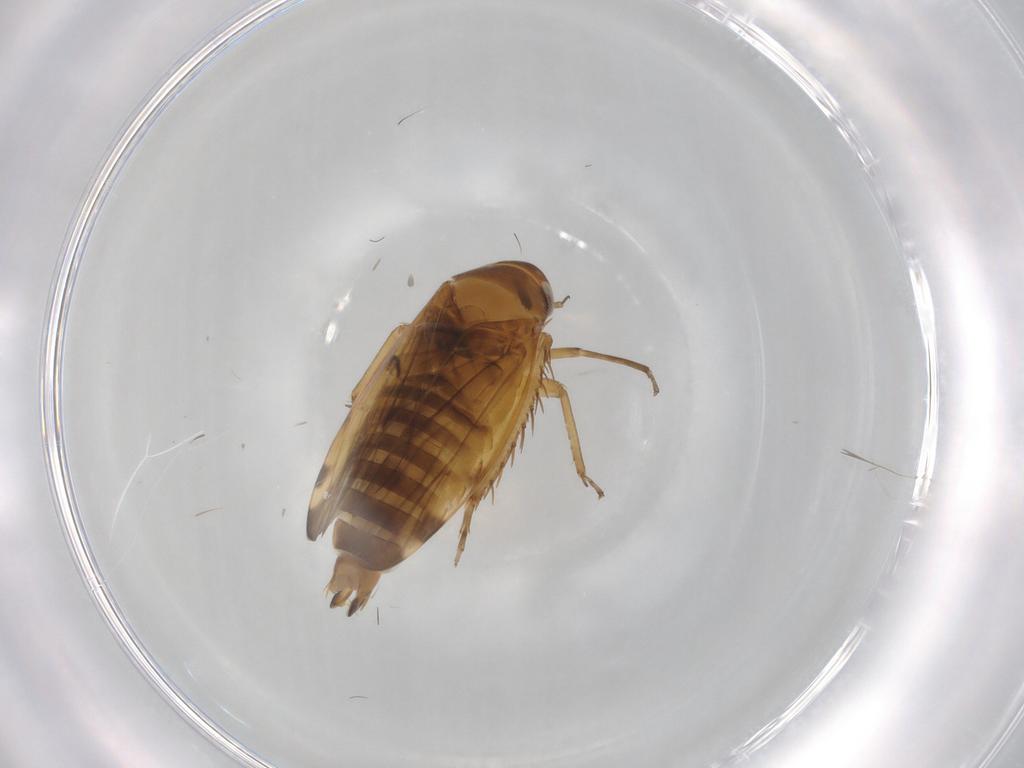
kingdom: Animalia
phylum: Arthropoda
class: Insecta
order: Hemiptera
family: Cicadellidae
